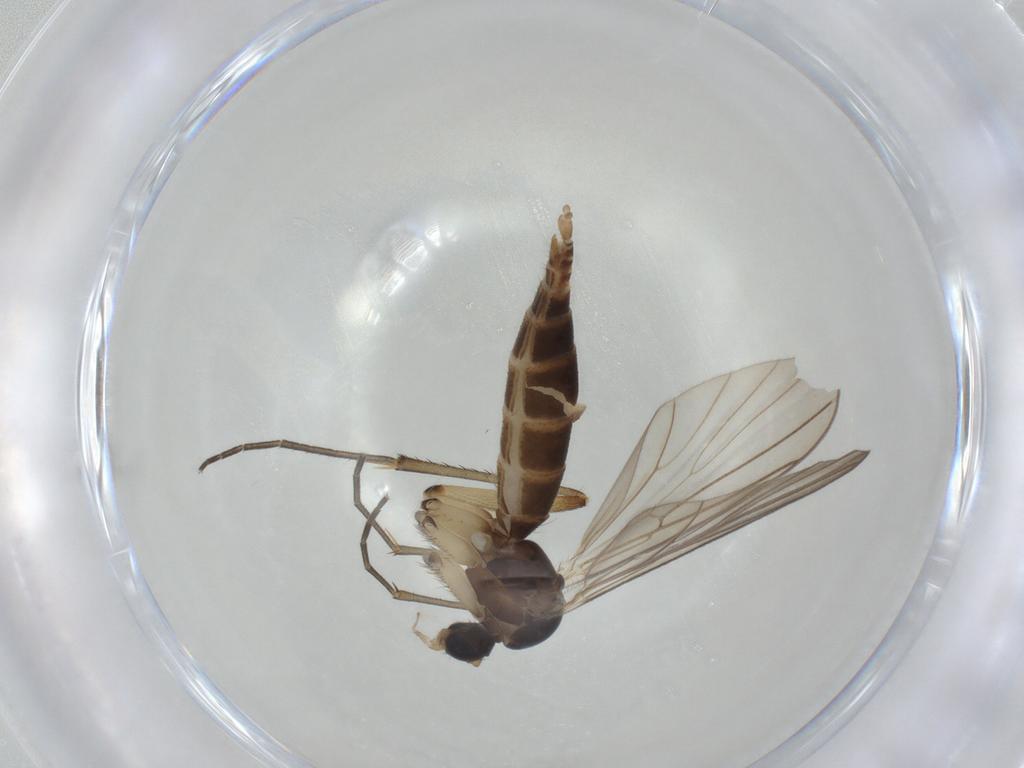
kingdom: Animalia
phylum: Arthropoda
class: Insecta
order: Diptera
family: Mycetophilidae
